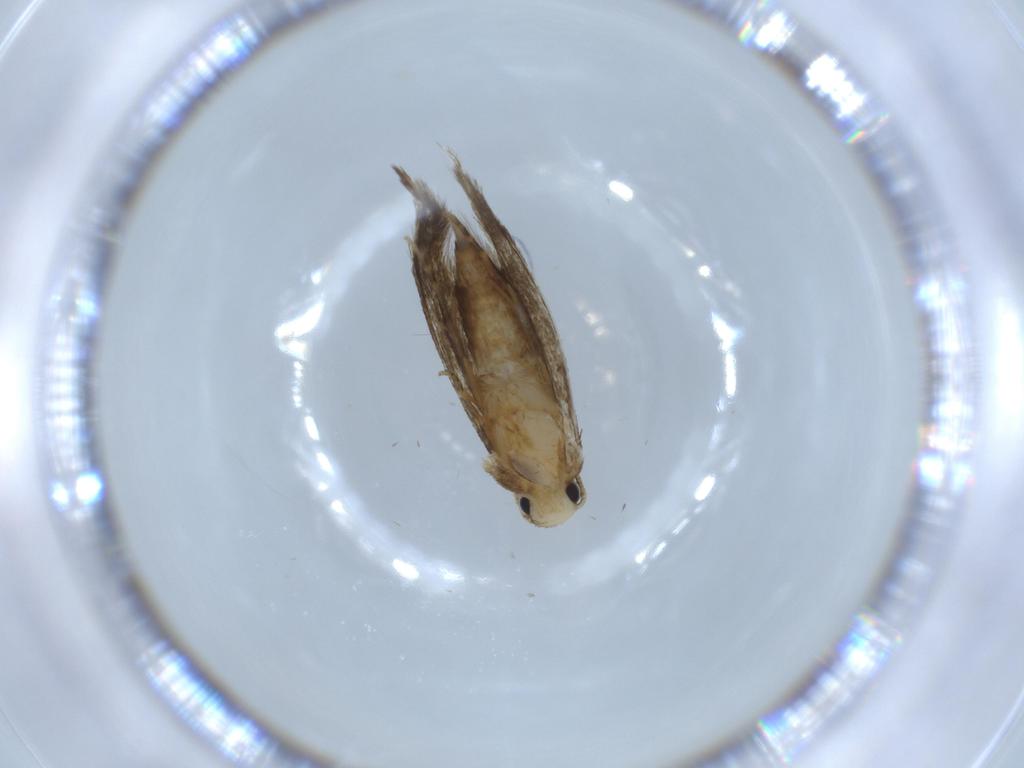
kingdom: Animalia
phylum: Arthropoda
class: Insecta
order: Lepidoptera
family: Tineidae
